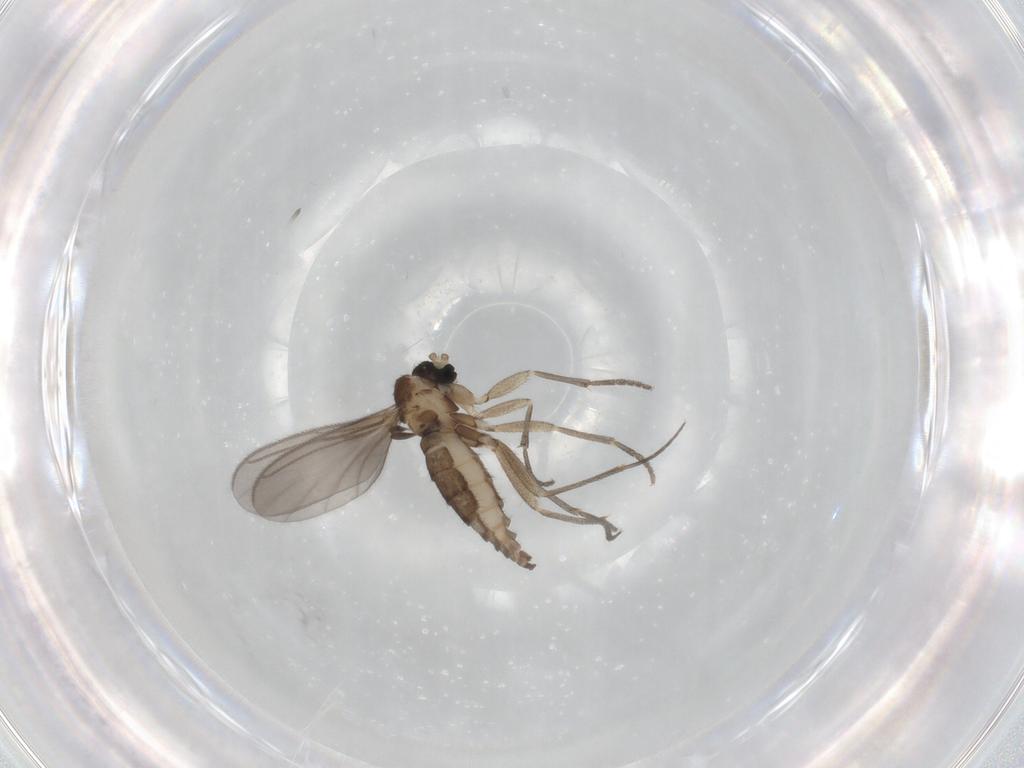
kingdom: Animalia
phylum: Arthropoda
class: Insecta
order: Diptera
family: Sciaridae
